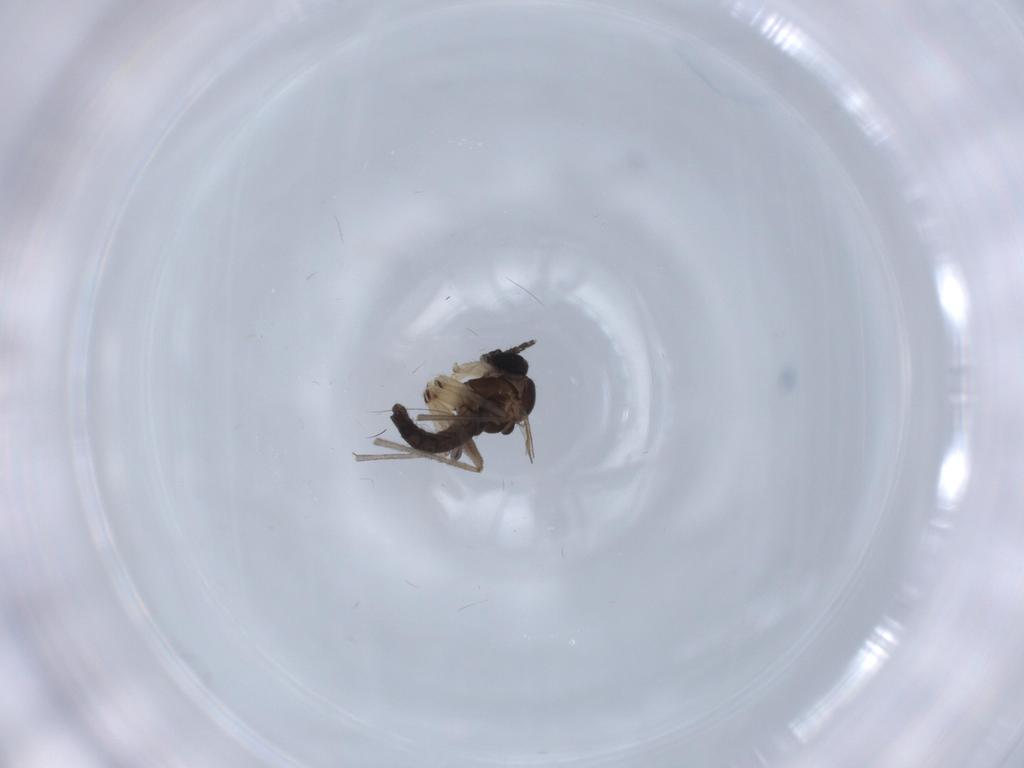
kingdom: Animalia
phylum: Arthropoda
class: Insecta
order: Diptera
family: Sciaridae
